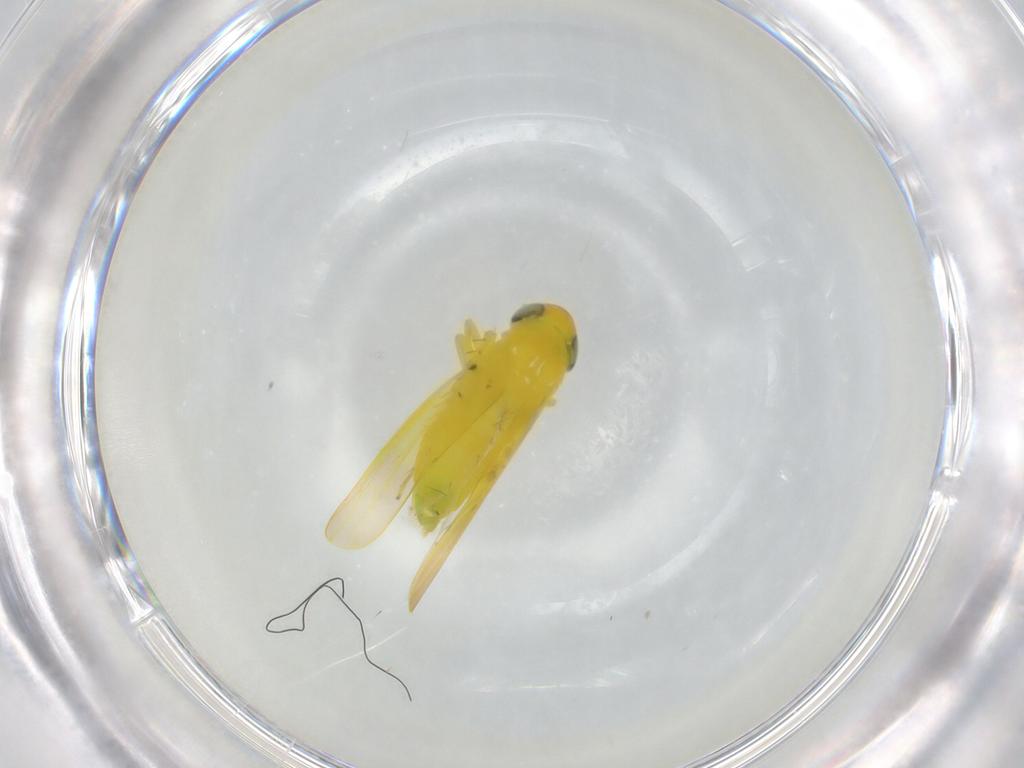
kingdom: Animalia
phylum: Arthropoda
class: Insecta
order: Hemiptera
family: Cicadellidae
